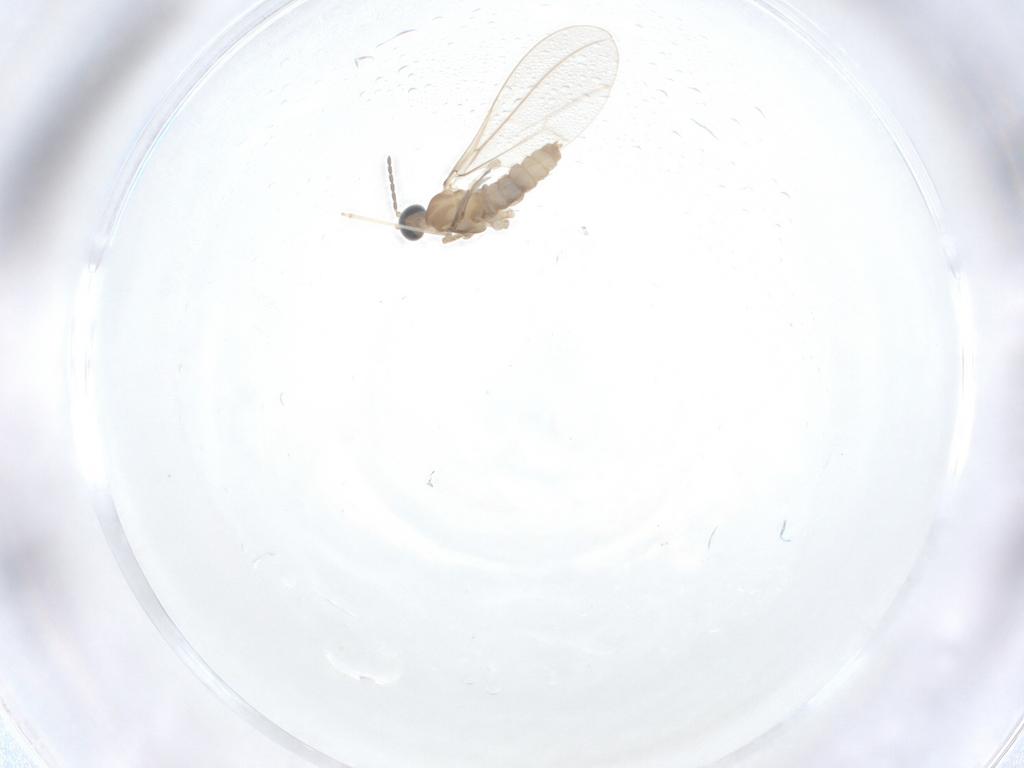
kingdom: Animalia
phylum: Arthropoda
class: Insecta
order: Diptera
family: Cecidomyiidae
